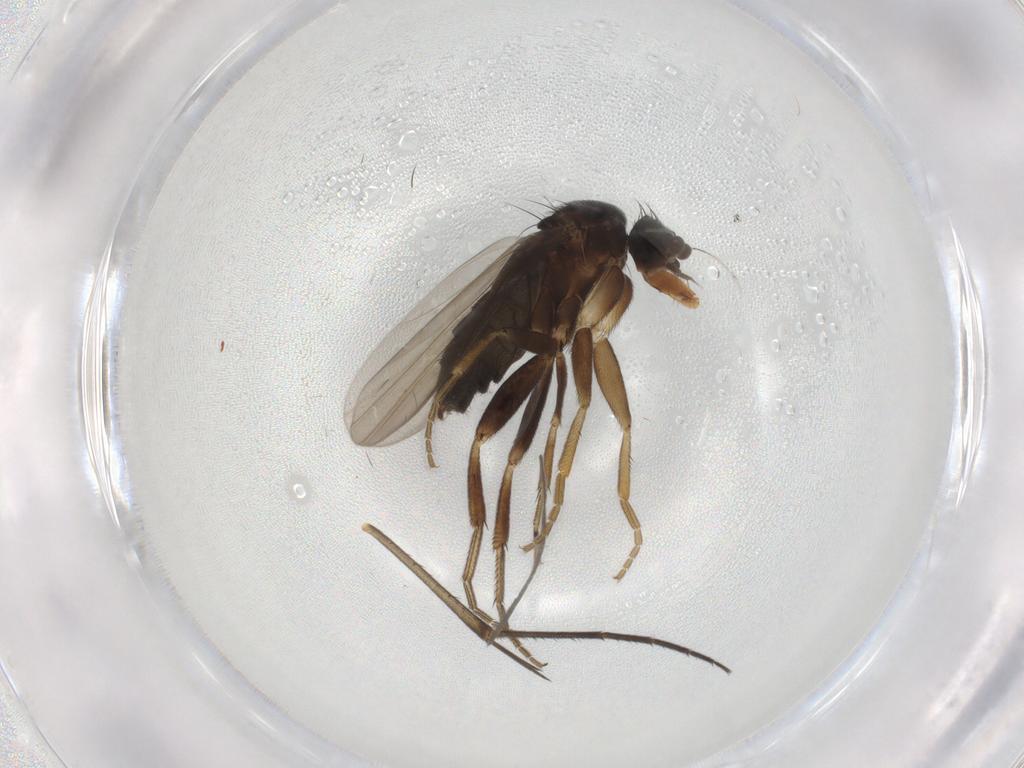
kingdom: Animalia
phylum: Arthropoda
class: Insecta
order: Diptera
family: Phoridae
